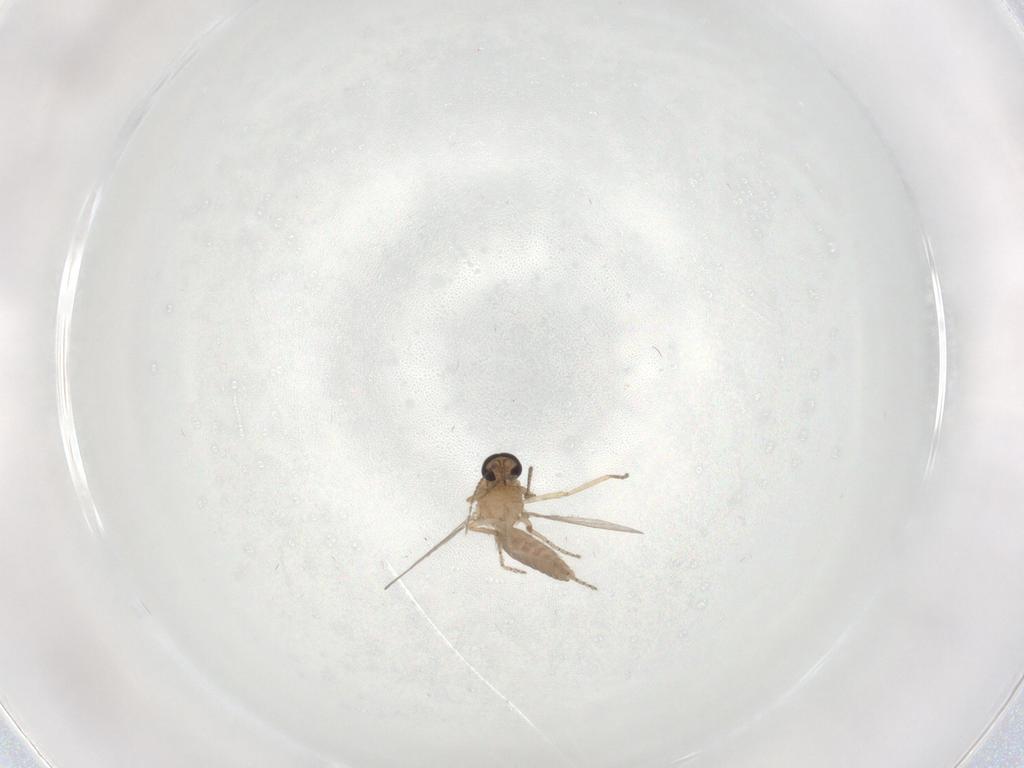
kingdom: Animalia
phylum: Arthropoda
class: Insecta
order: Diptera
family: Ceratopogonidae
